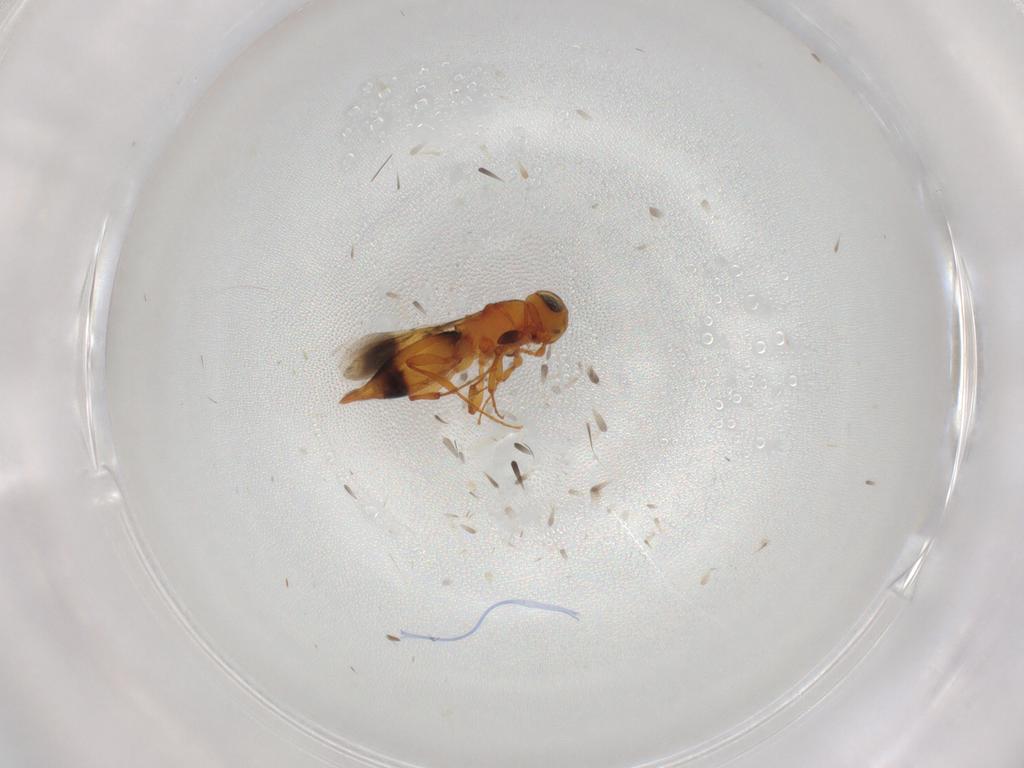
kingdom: Animalia
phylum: Arthropoda
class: Insecta
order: Hymenoptera
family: Platygastridae
